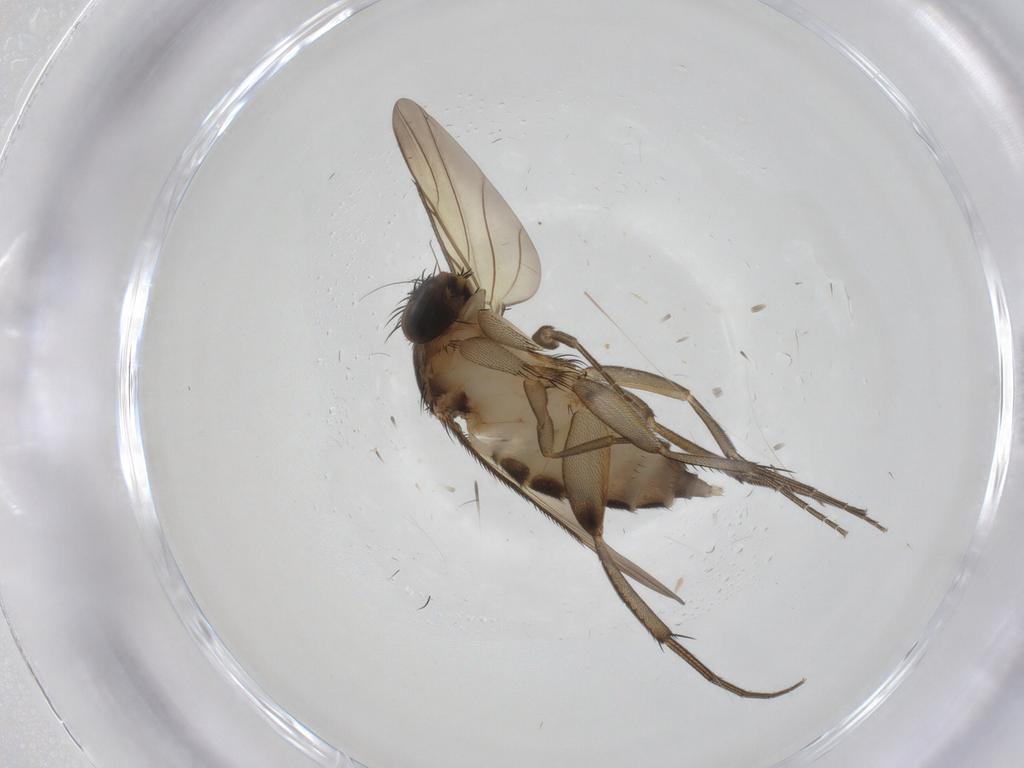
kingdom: Animalia
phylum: Arthropoda
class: Insecta
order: Diptera
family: Phoridae
